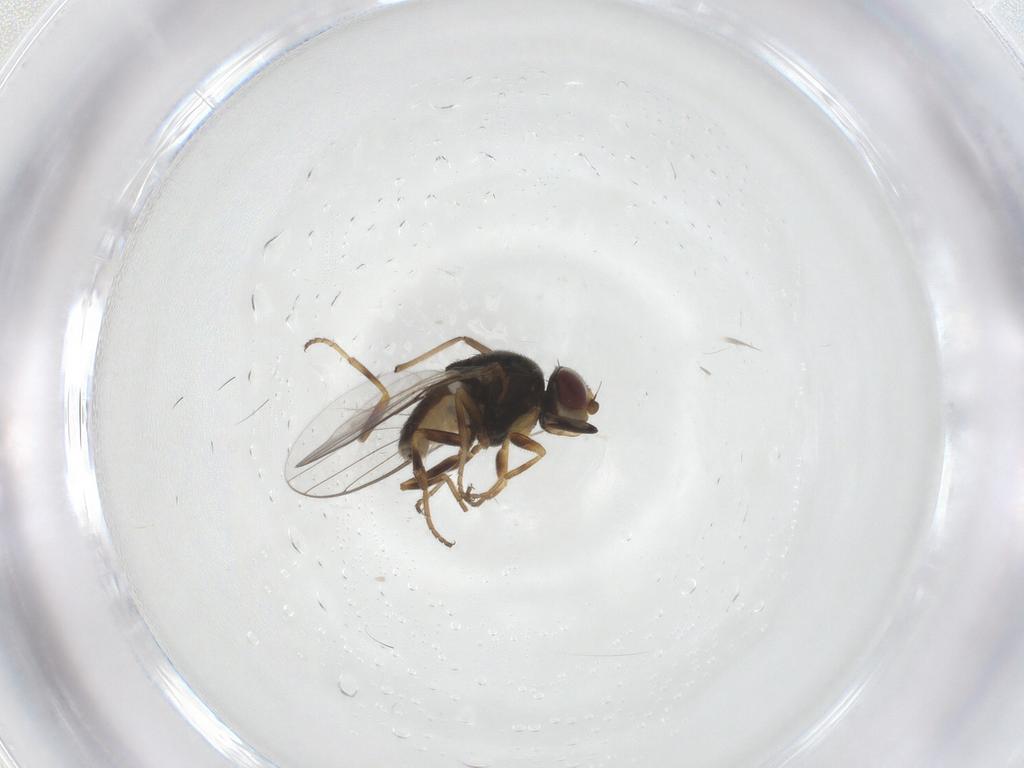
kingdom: Animalia
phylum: Arthropoda
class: Insecta
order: Diptera
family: Chloropidae
